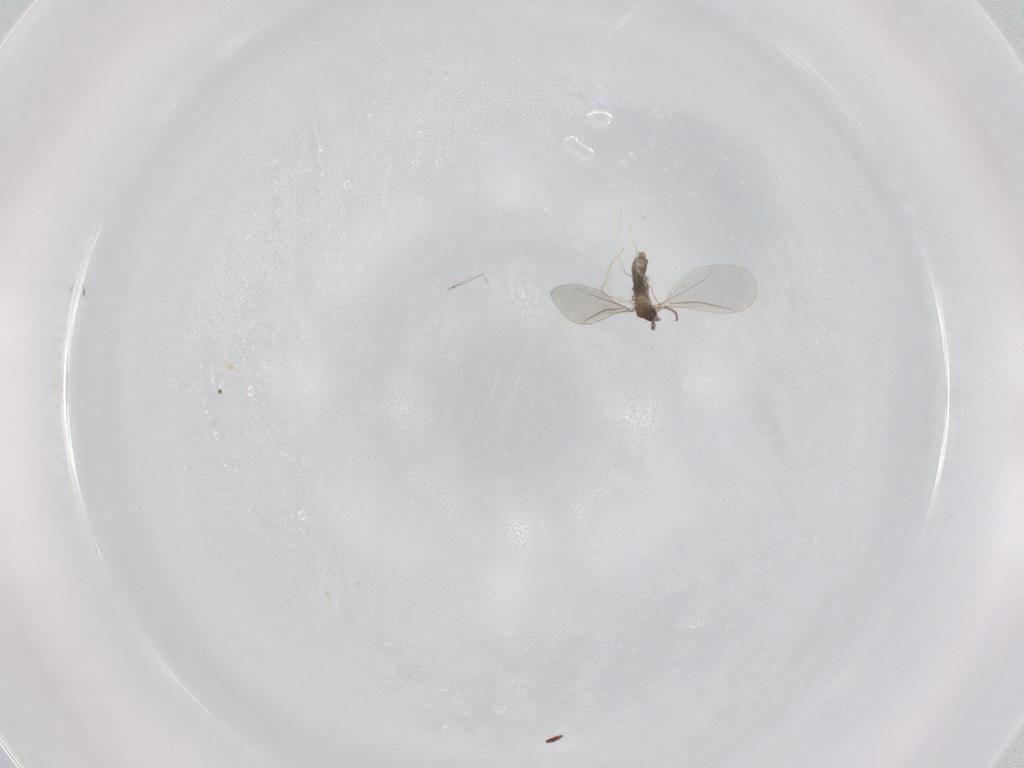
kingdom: Animalia
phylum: Arthropoda
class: Insecta
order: Diptera
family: Cecidomyiidae
